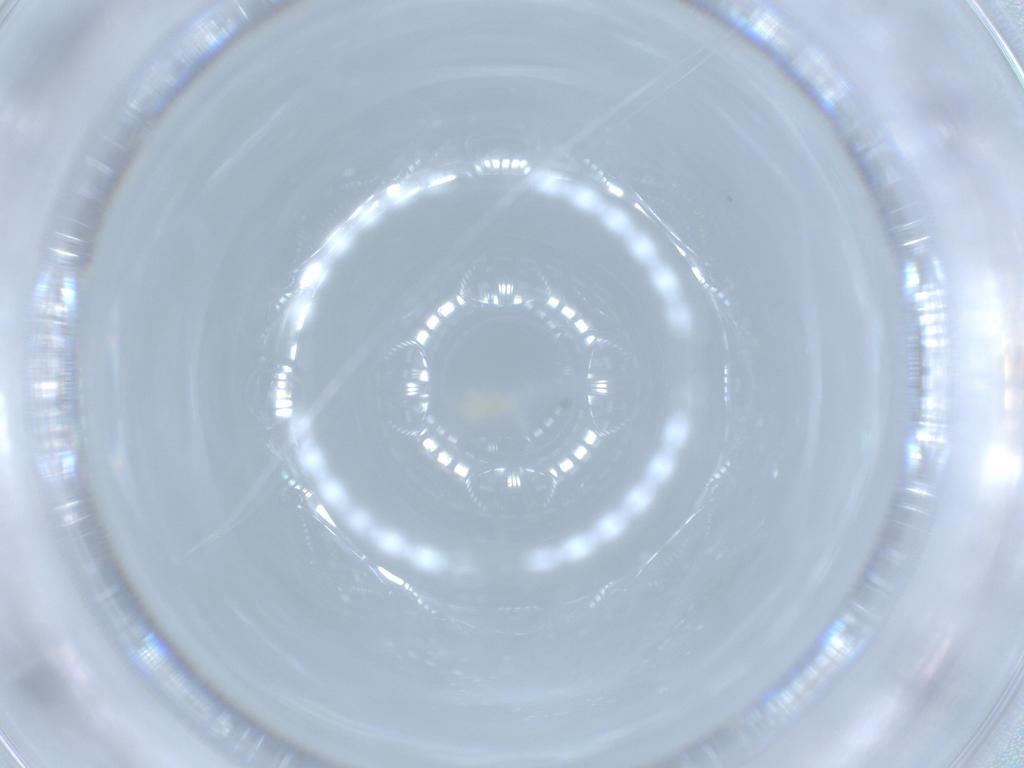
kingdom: Animalia
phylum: Arthropoda
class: Arachnida
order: Trombidiformes
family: Eupodidae
